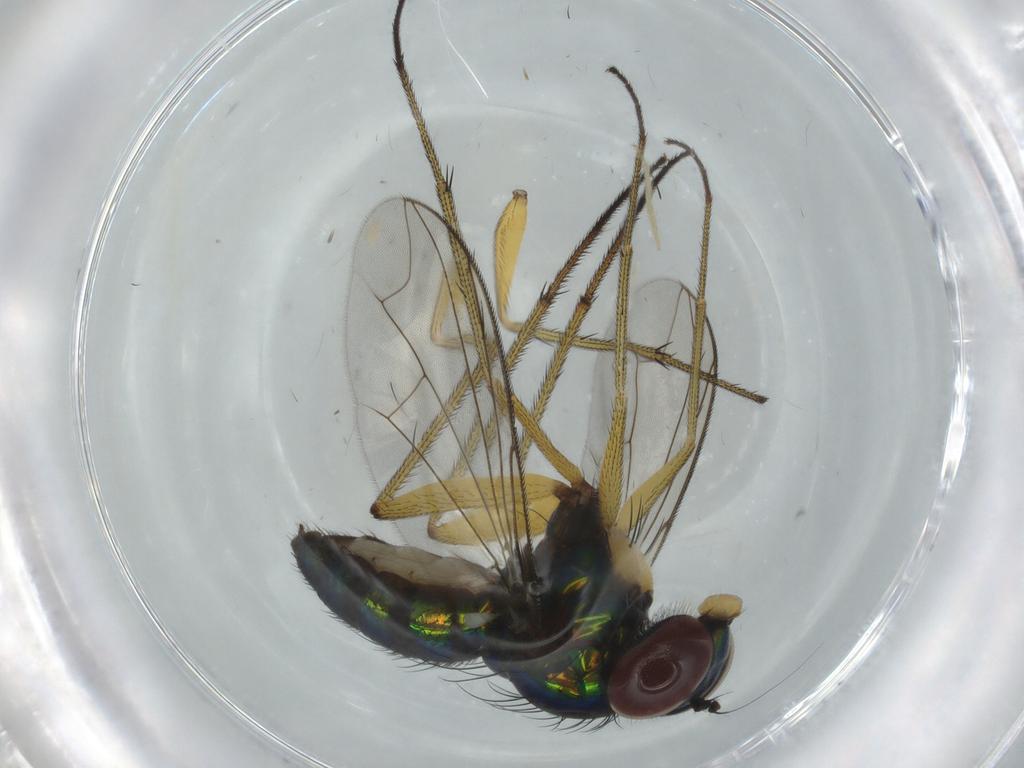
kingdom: Animalia
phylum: Arthropoda
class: Insecta
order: Diptera
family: Dolichopodidae
